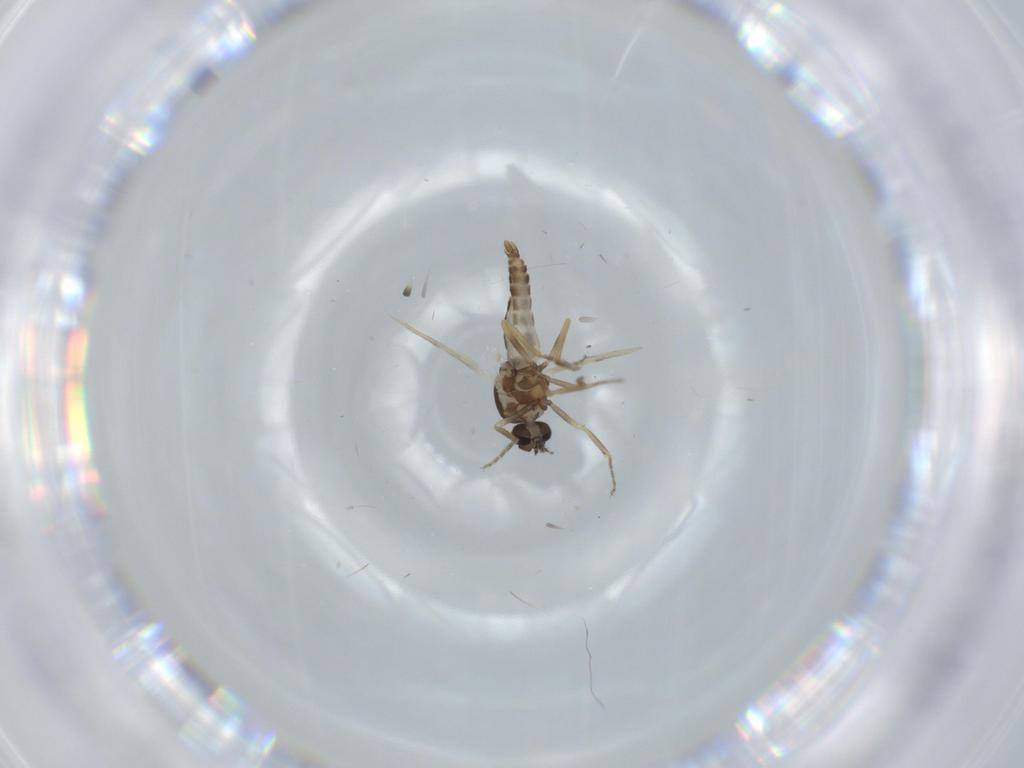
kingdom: Animalia
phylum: Arthropoda
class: Insecta
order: Diptera
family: Ceratopogonidae
